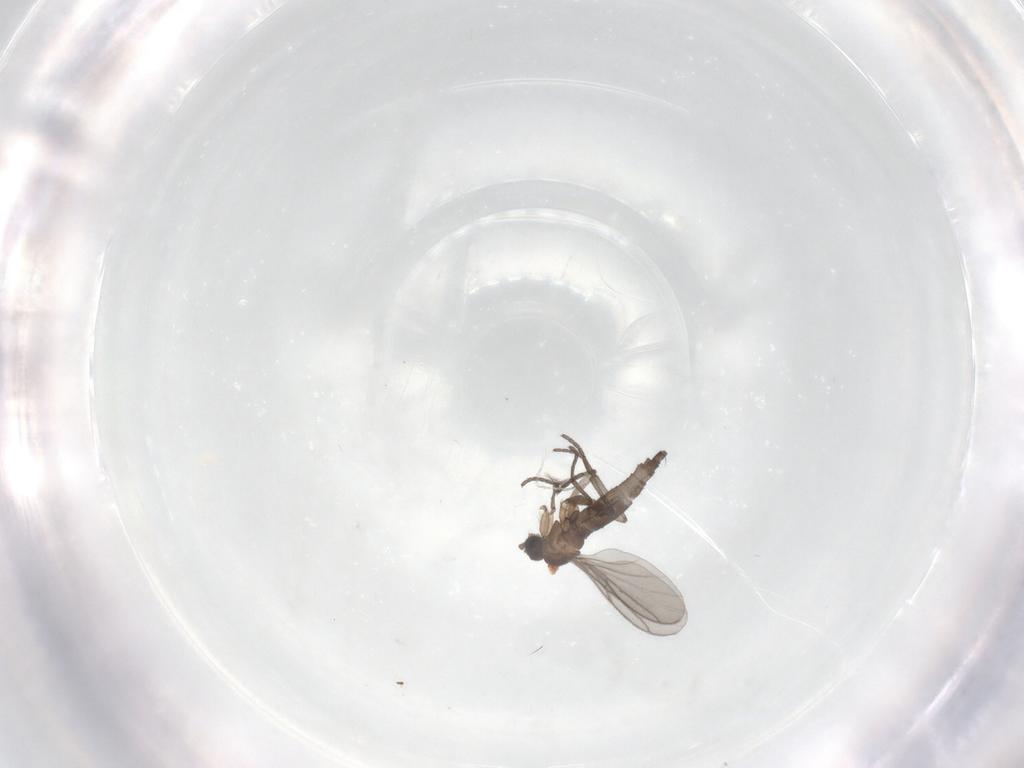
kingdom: Animalia
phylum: Arthropoda
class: Insecta
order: Diptera
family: Sciaridae
